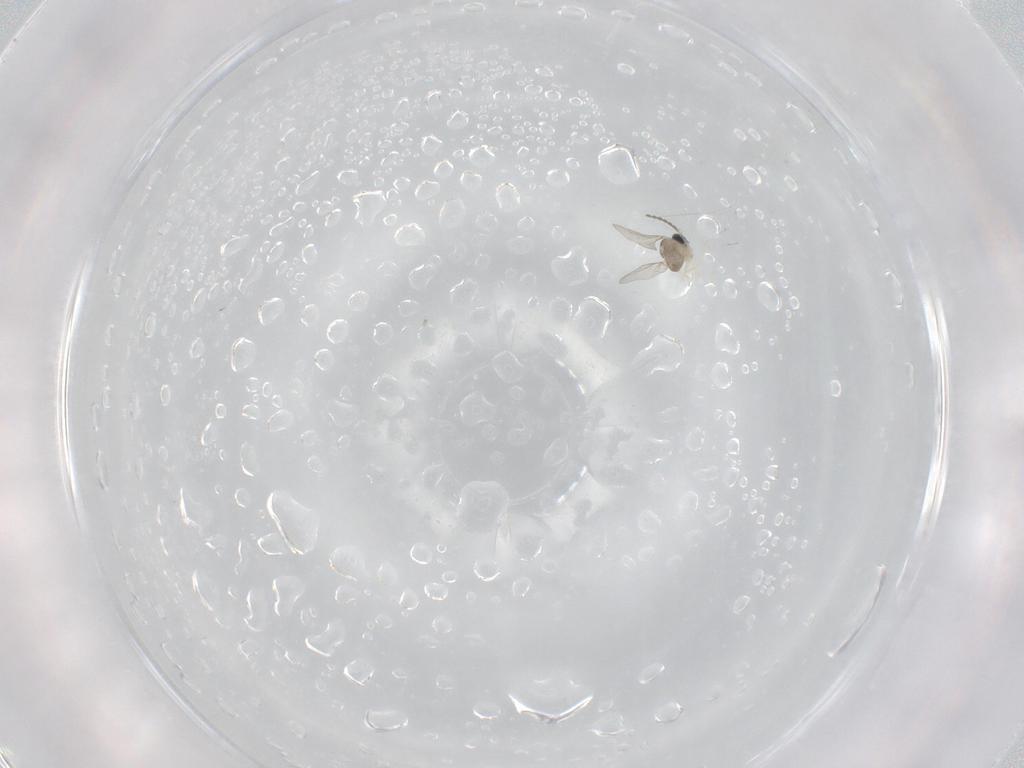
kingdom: Animalia
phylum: Arthropoda
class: Insecta
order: Diptera
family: Cecidomyiidae
